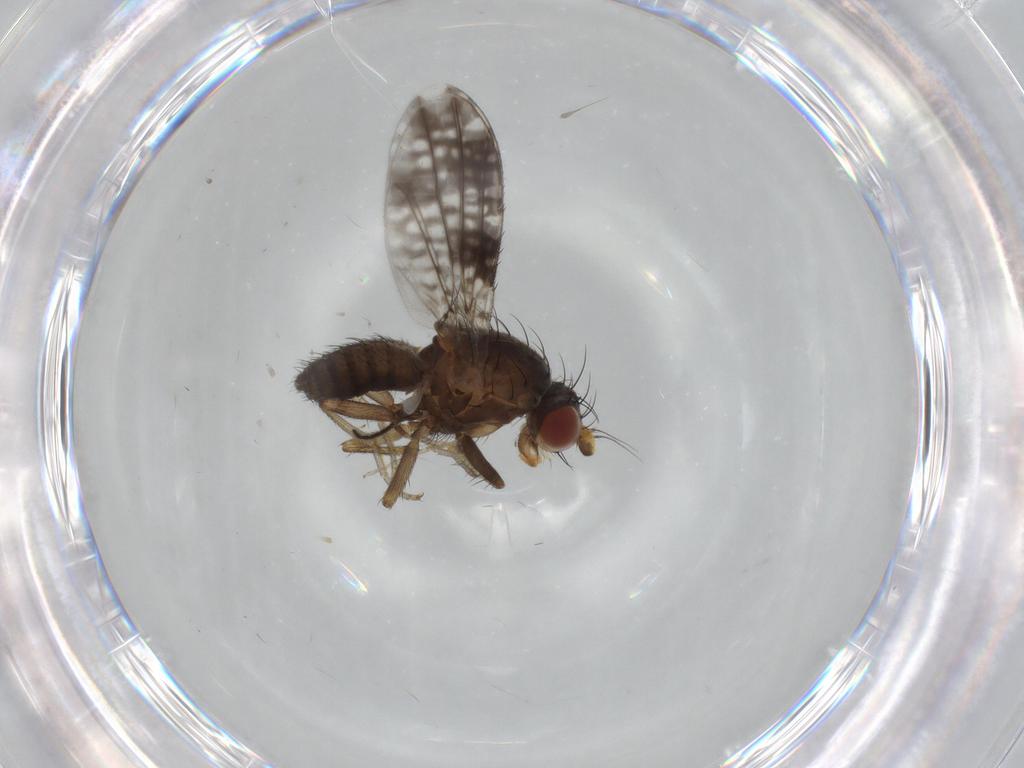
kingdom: Animalia
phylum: Arthropoda
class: Insecta
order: Diptera
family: Tephritidae
